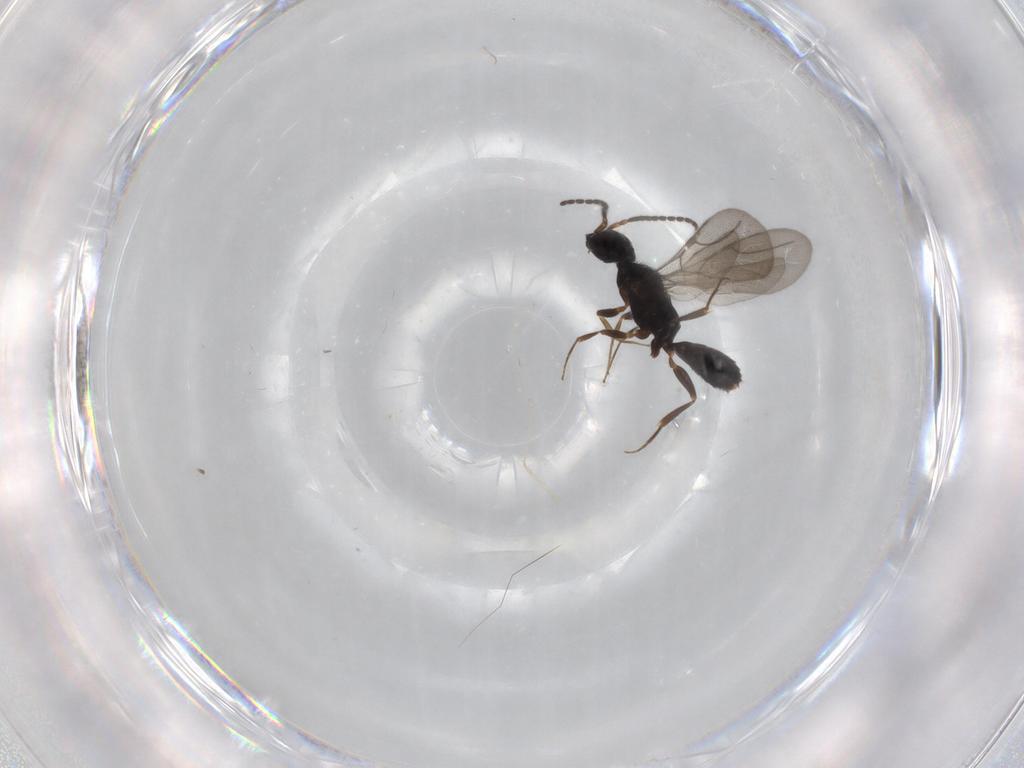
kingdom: Animalia
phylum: Arthropoda
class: Insecta
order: Hymenoptera
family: Bethylidae
